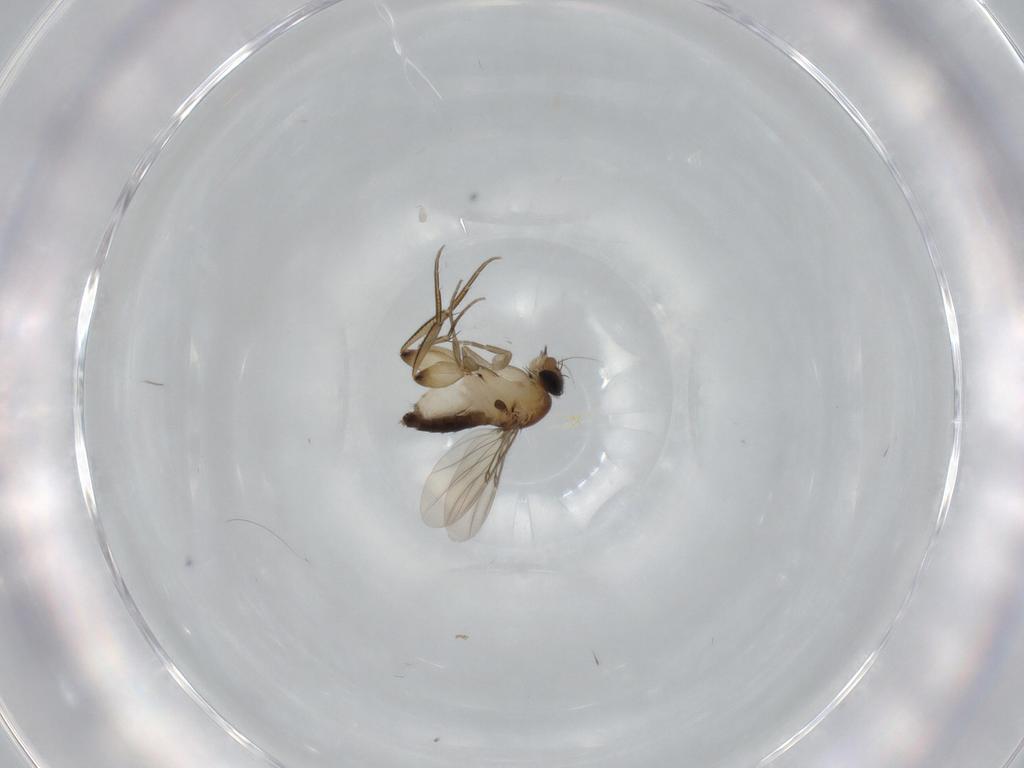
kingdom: Animalia
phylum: Arthropoda
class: Insecta
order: Diptera
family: Phoridae
